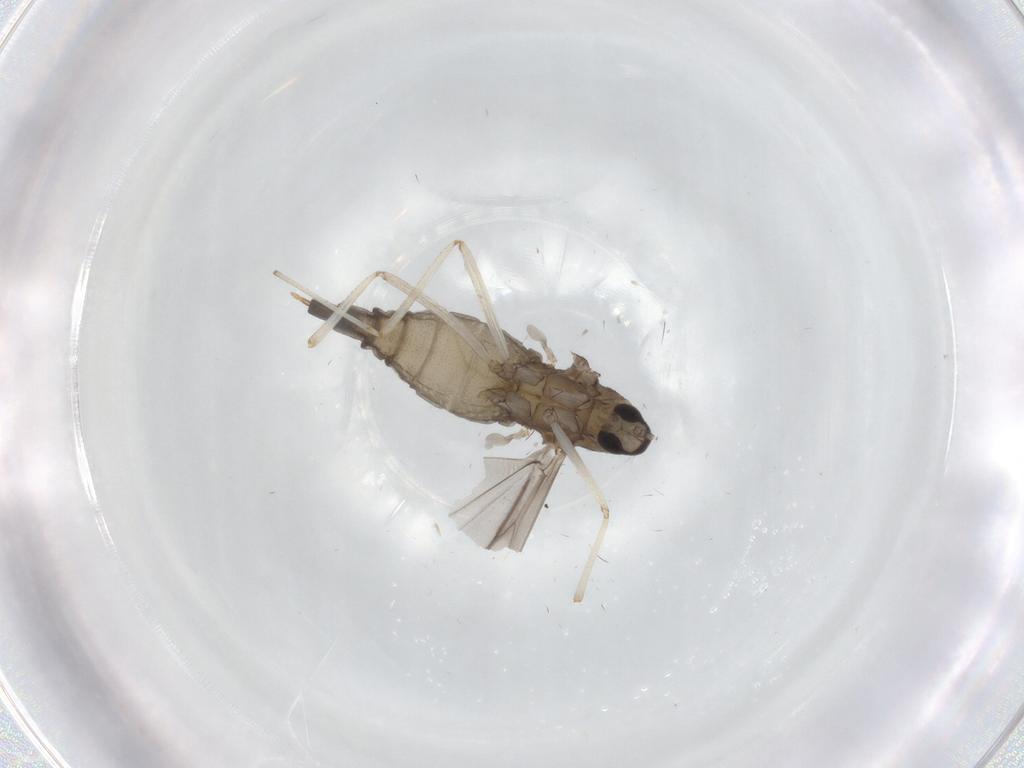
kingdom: Animalia
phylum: Arthropoda
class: Insecta
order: Diptera
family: Cecidomyiidae
